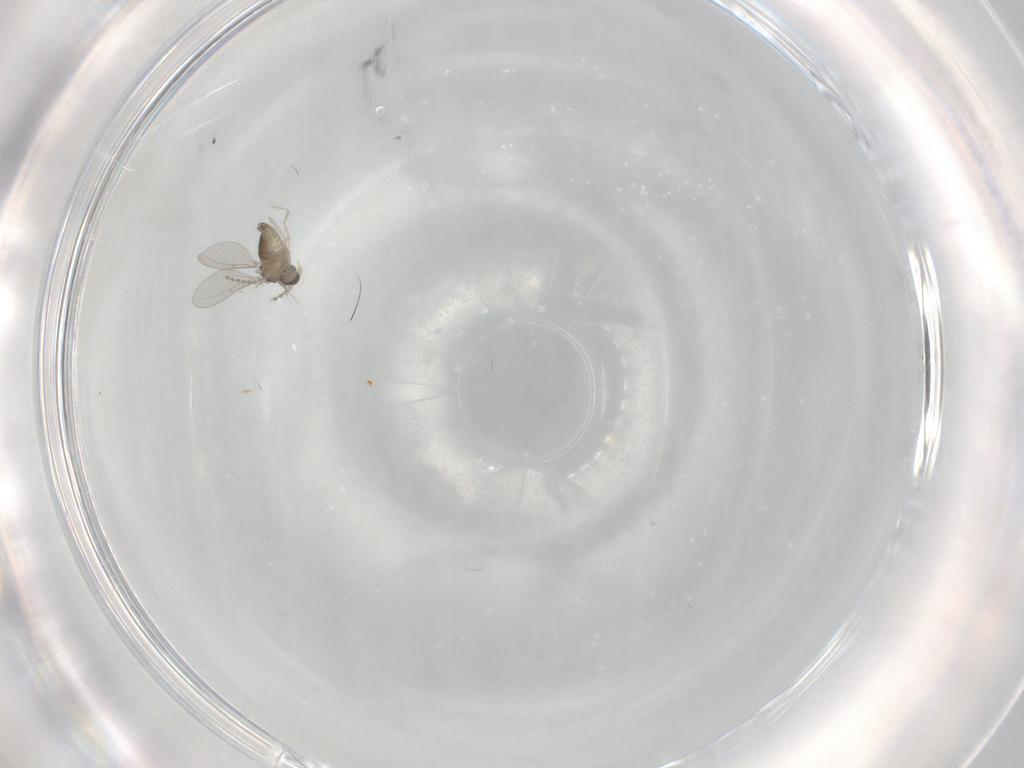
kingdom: Animalia
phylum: Arthropoda
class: Insecta
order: Diptera
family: Cecidomyiidae
